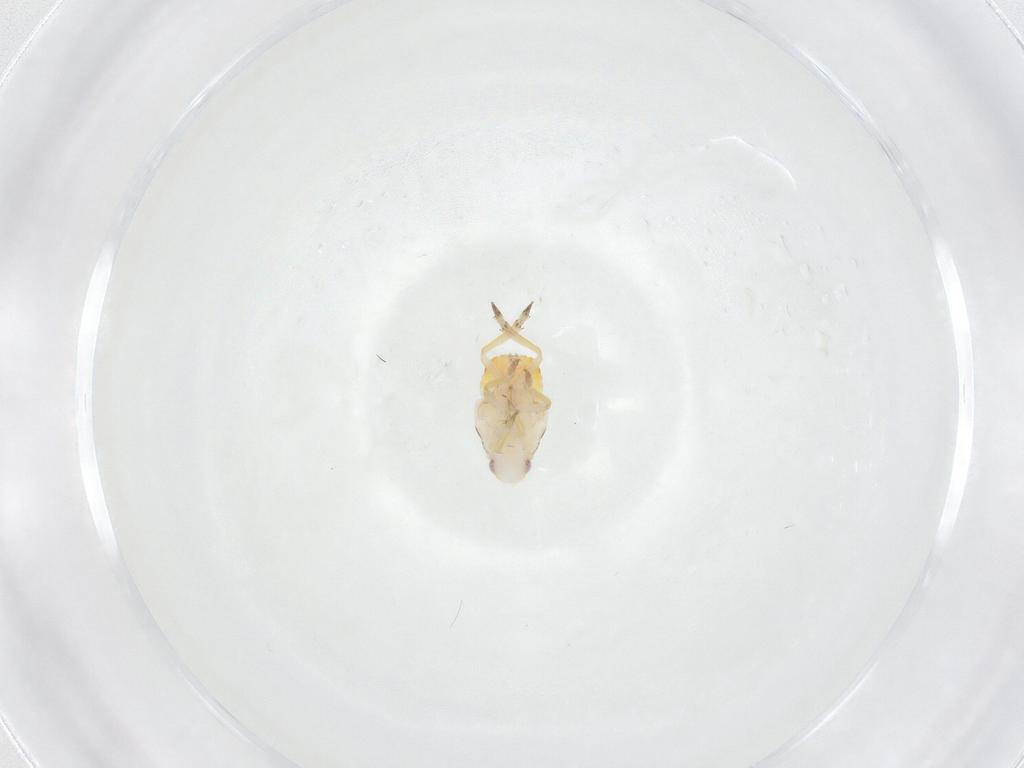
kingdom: Animalia
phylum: Arthropoda
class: Insecta
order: Hemiptera
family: Flatidae
